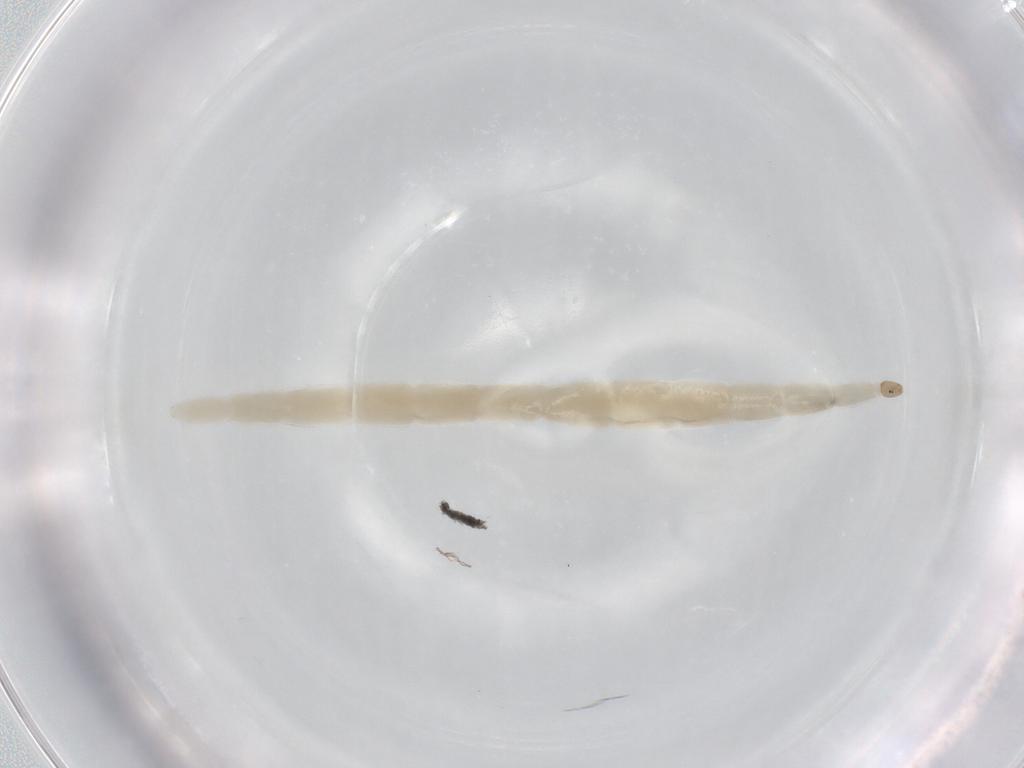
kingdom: Animalia
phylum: Arthropoda
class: Insecta
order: Diptera
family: Ceratopogonidae
